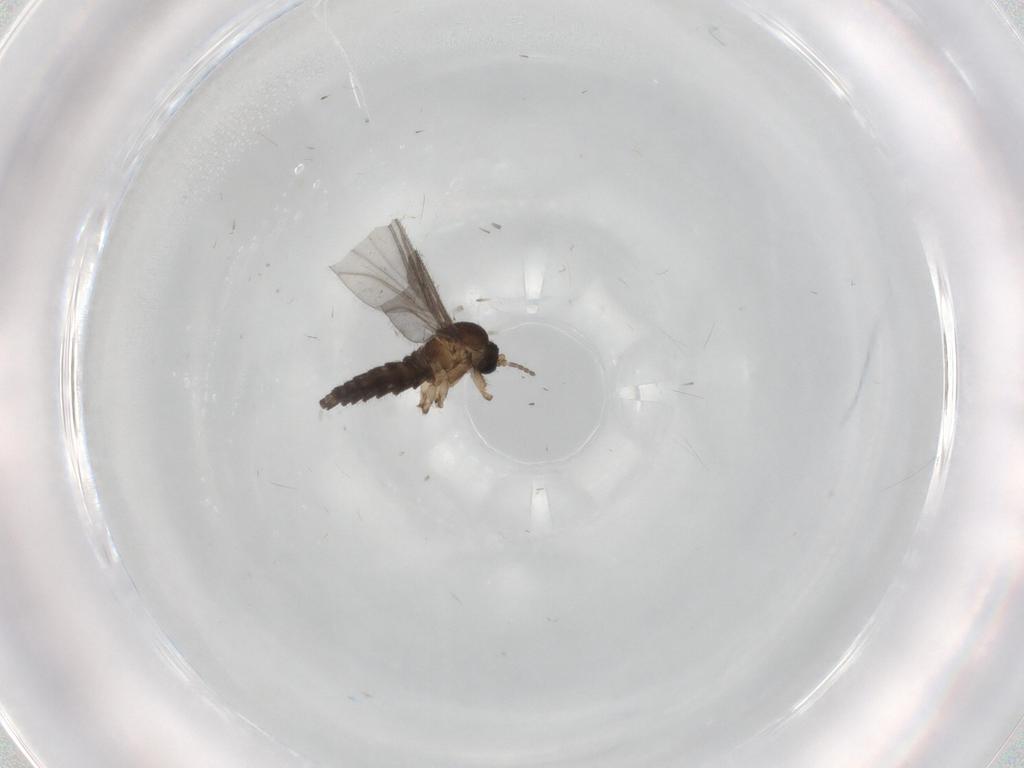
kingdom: Animalia
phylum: Arthropoda
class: Insecta
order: Diptera
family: Sciaridae
